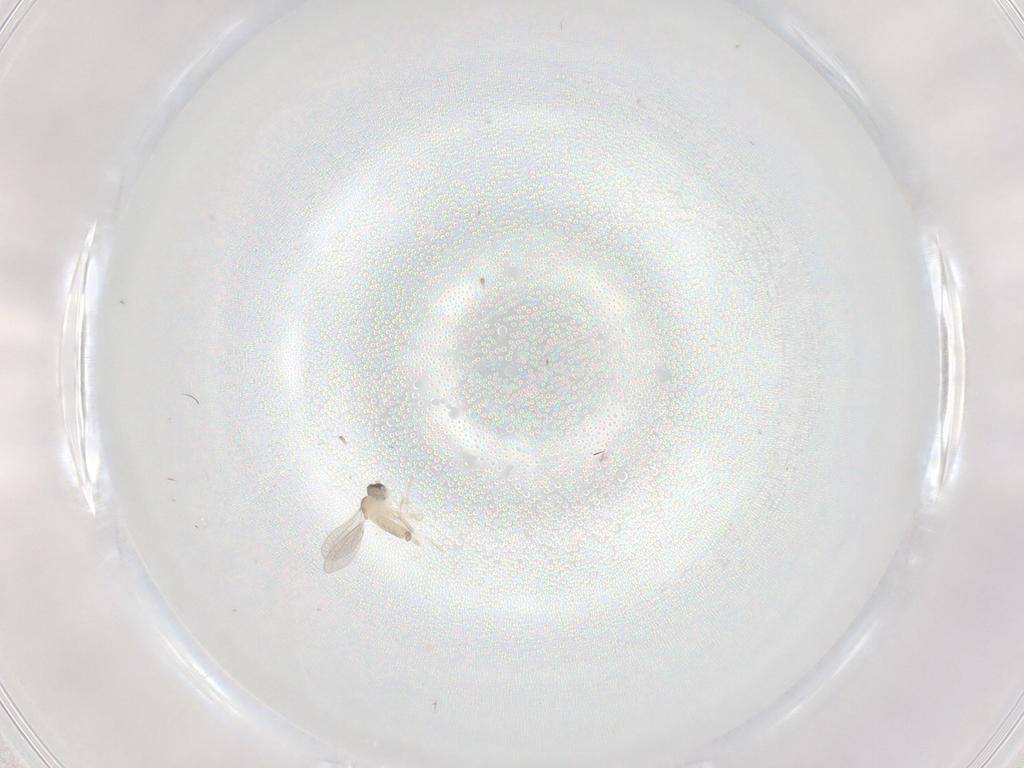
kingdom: Animalia
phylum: Arthropoda
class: Insecta
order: Diptera
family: Cecidomyiidae
